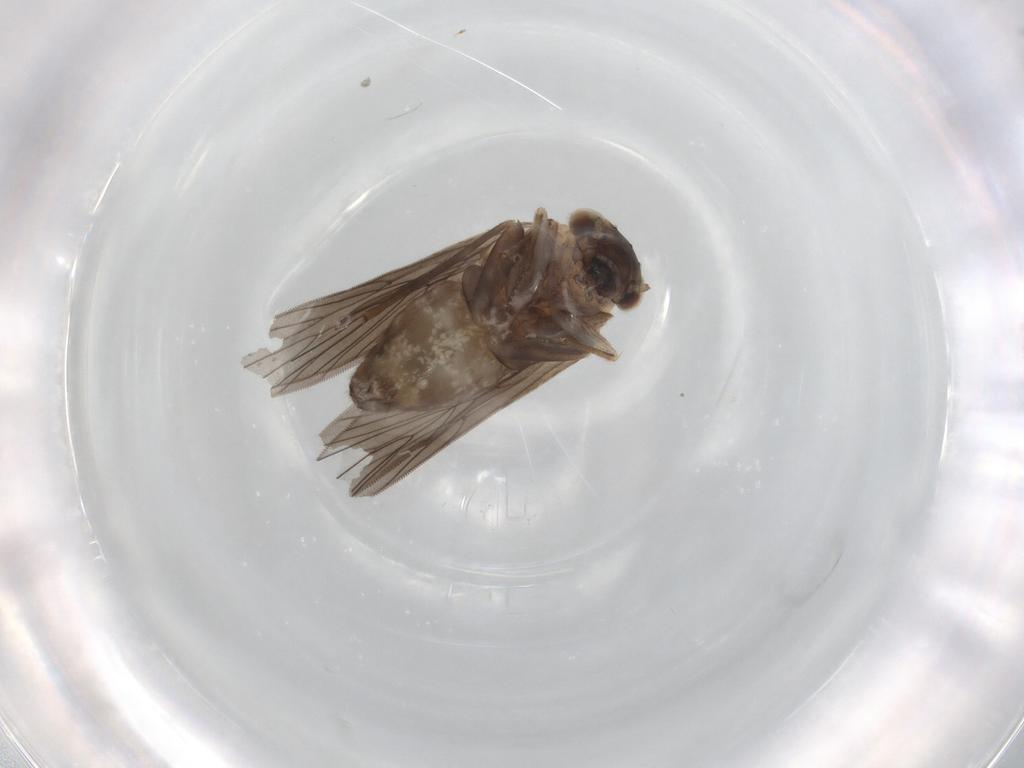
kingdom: Animalia
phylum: Arthropoda
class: Insecta
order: Psocodea
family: Lepidopsocidae
